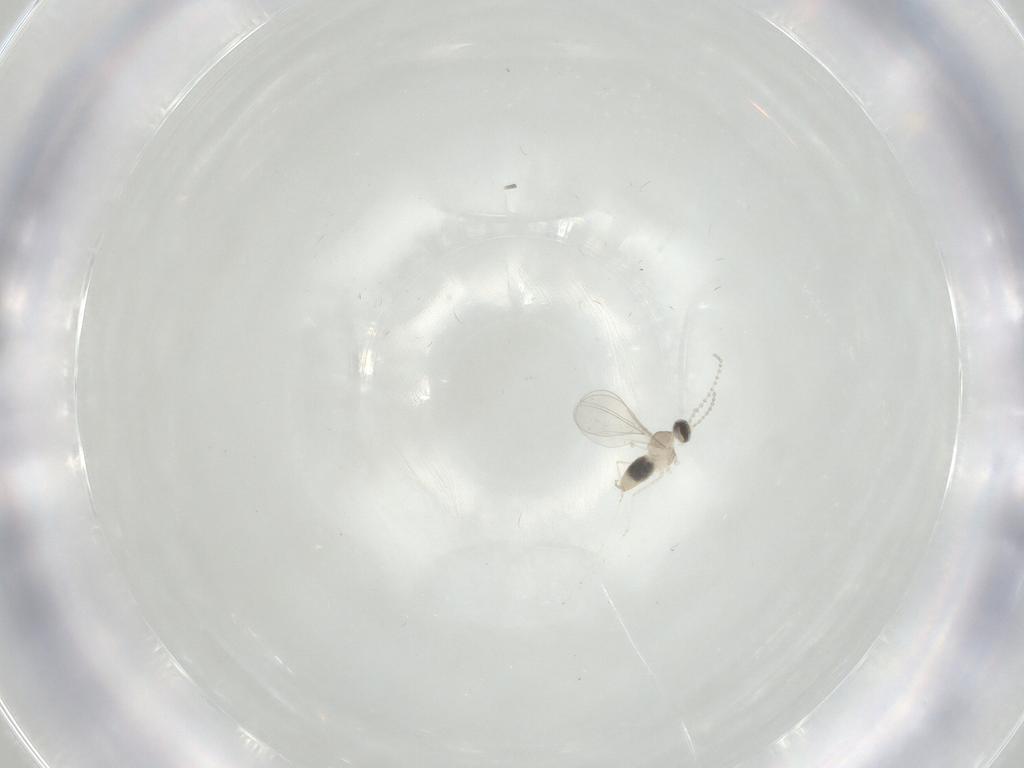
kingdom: Animalia
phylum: Arthropoda
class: Insecta
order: Diptera
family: Cecidomyiidae
